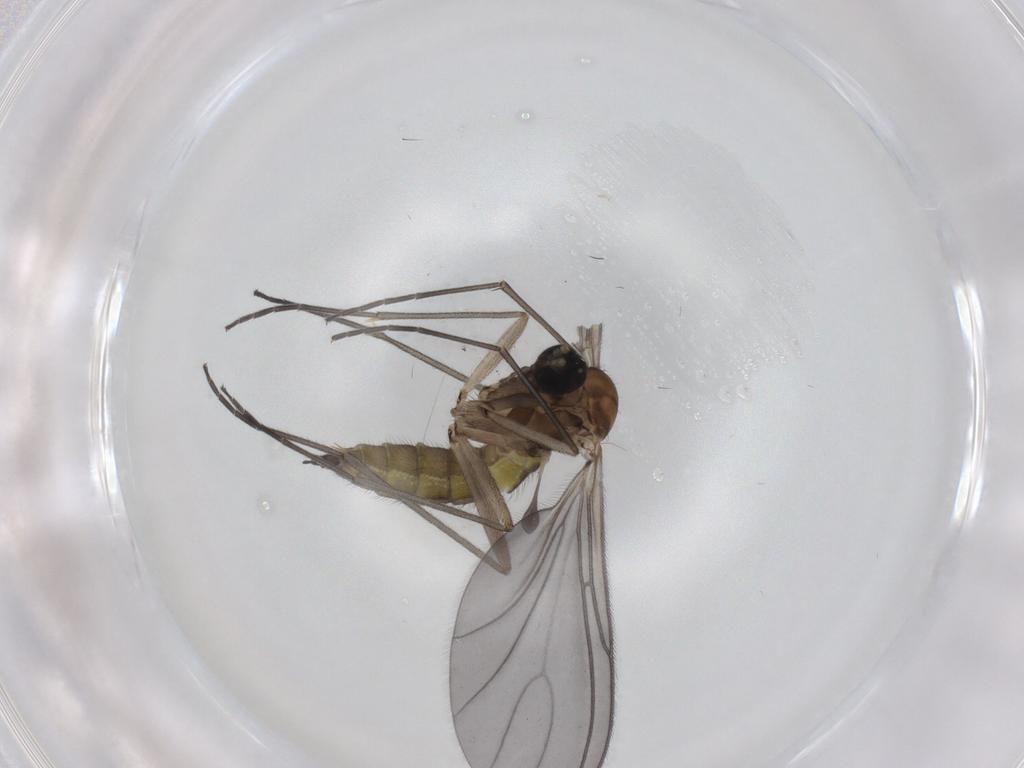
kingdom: Animalia
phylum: Arthropoda
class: Insecta
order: Diptera
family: Sciaridae
